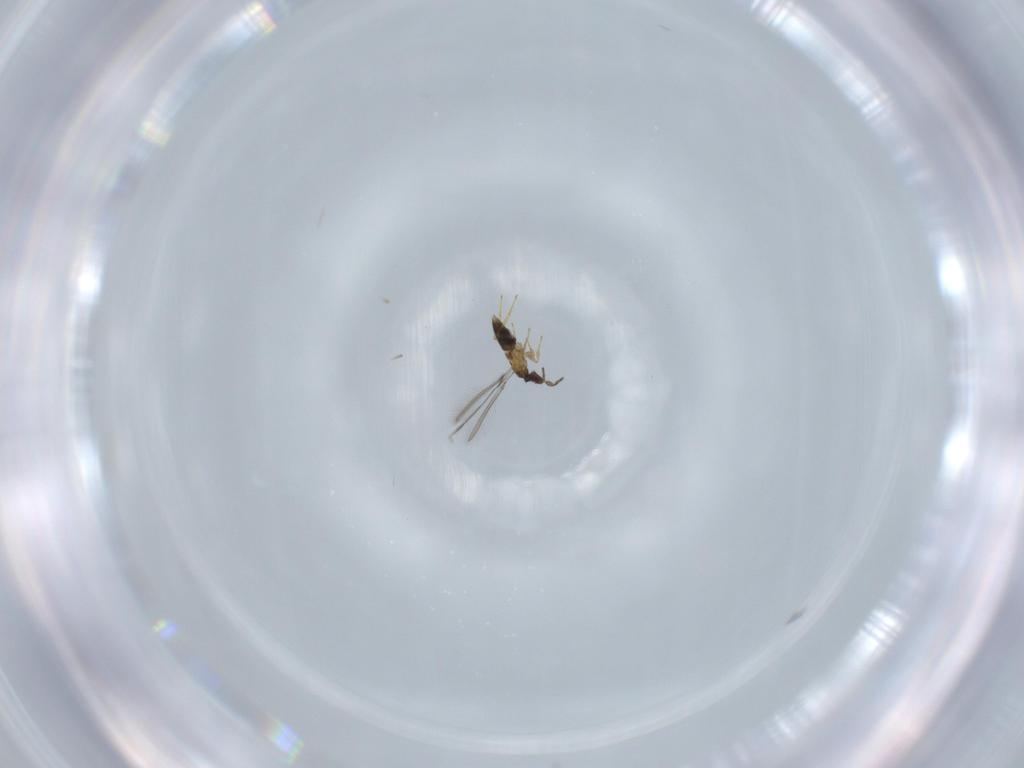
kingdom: Animalia
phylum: Arthropoda
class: Insecta
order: Hymenoptera
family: Mymaridae
